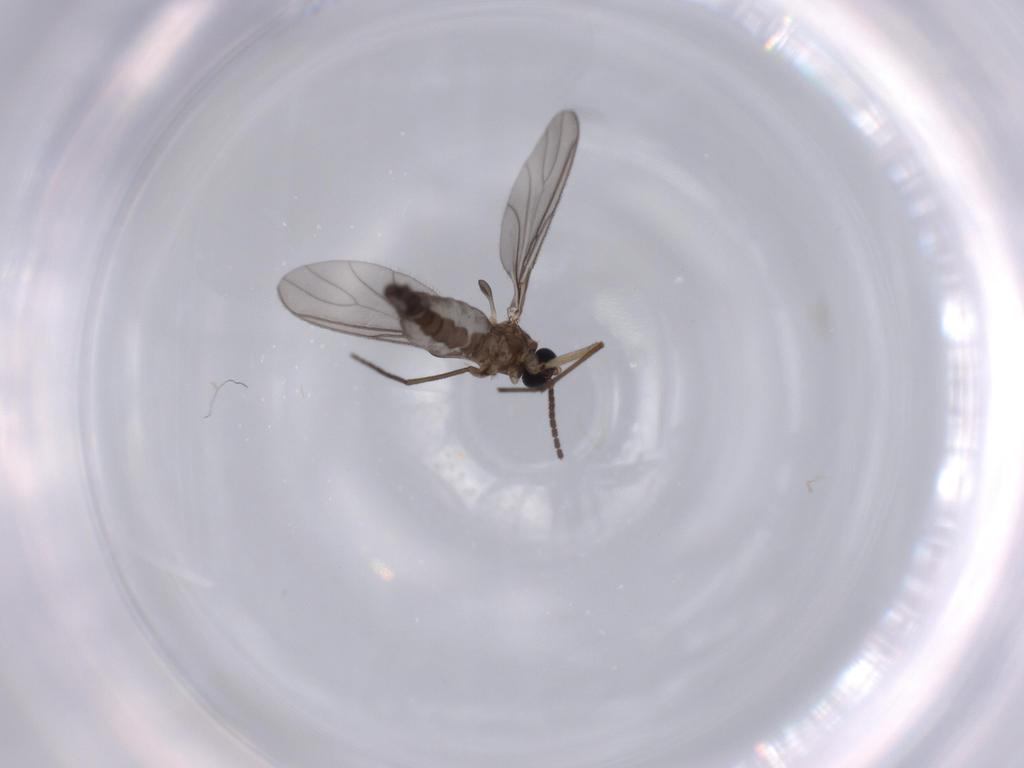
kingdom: Animalia
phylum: Arthropoda
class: Insecta
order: Diptera
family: Sciaridae
